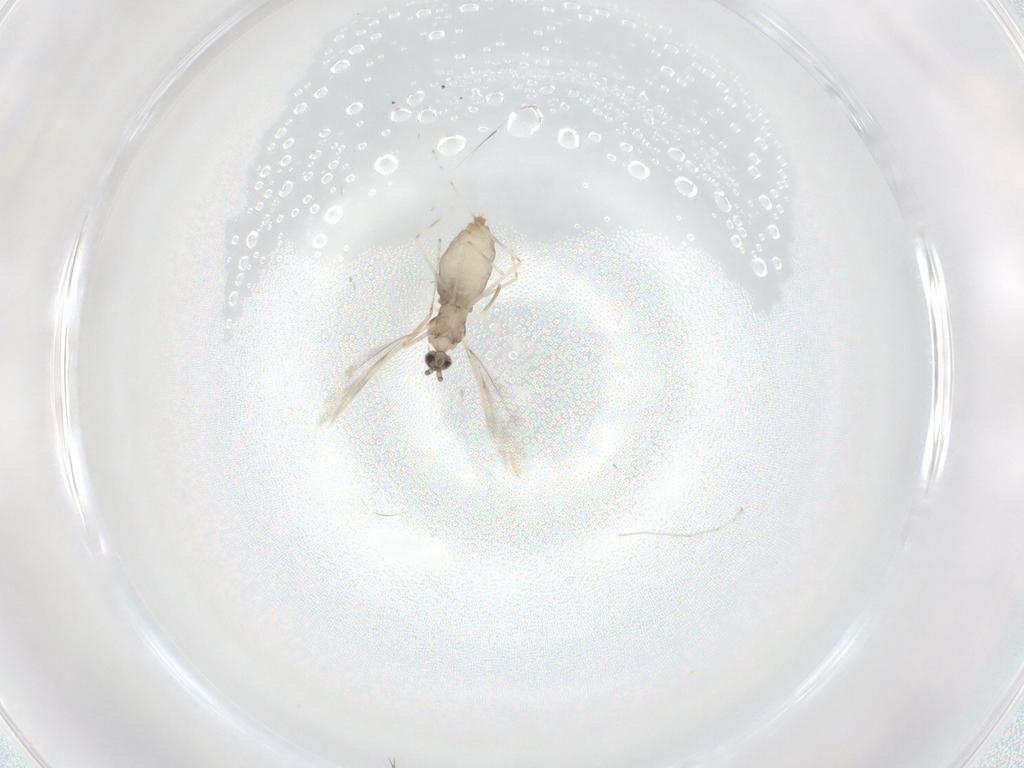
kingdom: Animalia
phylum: Arthropoda
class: Insecta
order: Diptera
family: Cecidomyiidae
